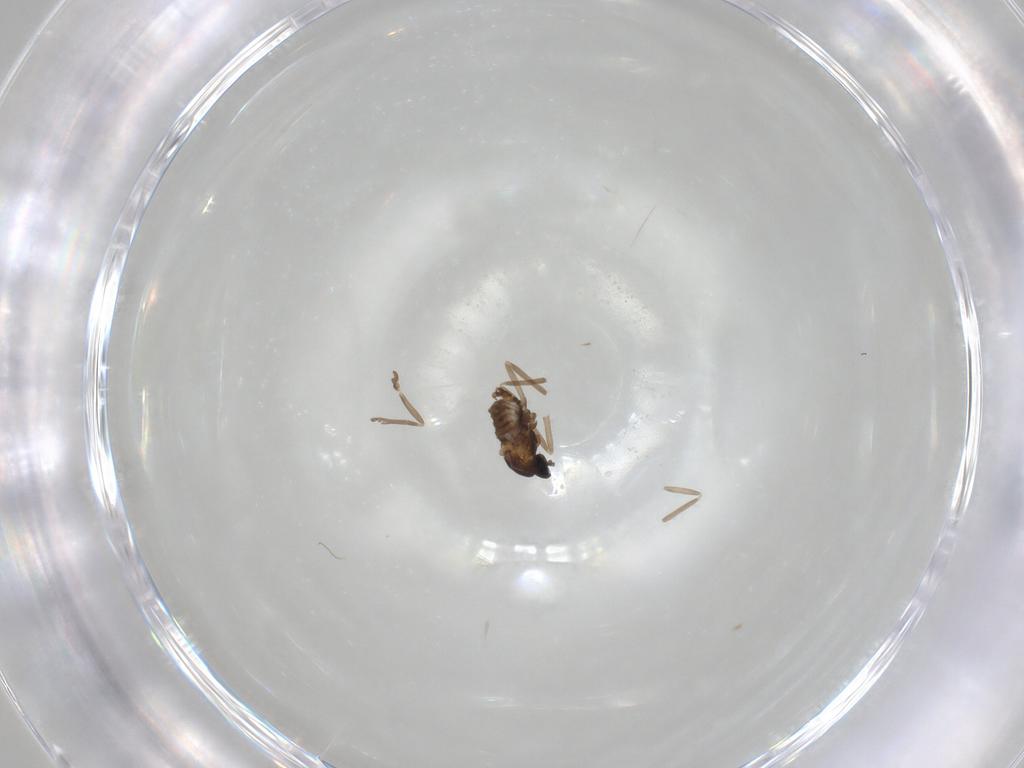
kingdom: Animalia
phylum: Arthropoda
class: Insecta
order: Diptera
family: Cecidomyiidae
